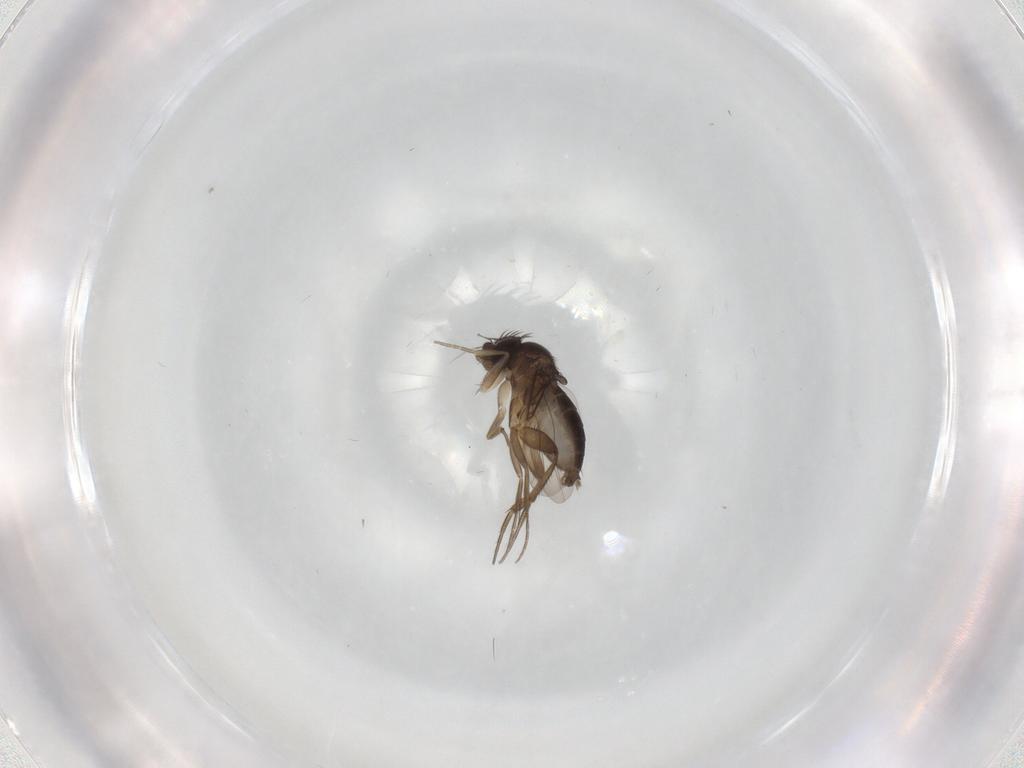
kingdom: Animalia
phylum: Arthropoda
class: Insecta
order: Diptera
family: Phoridae
